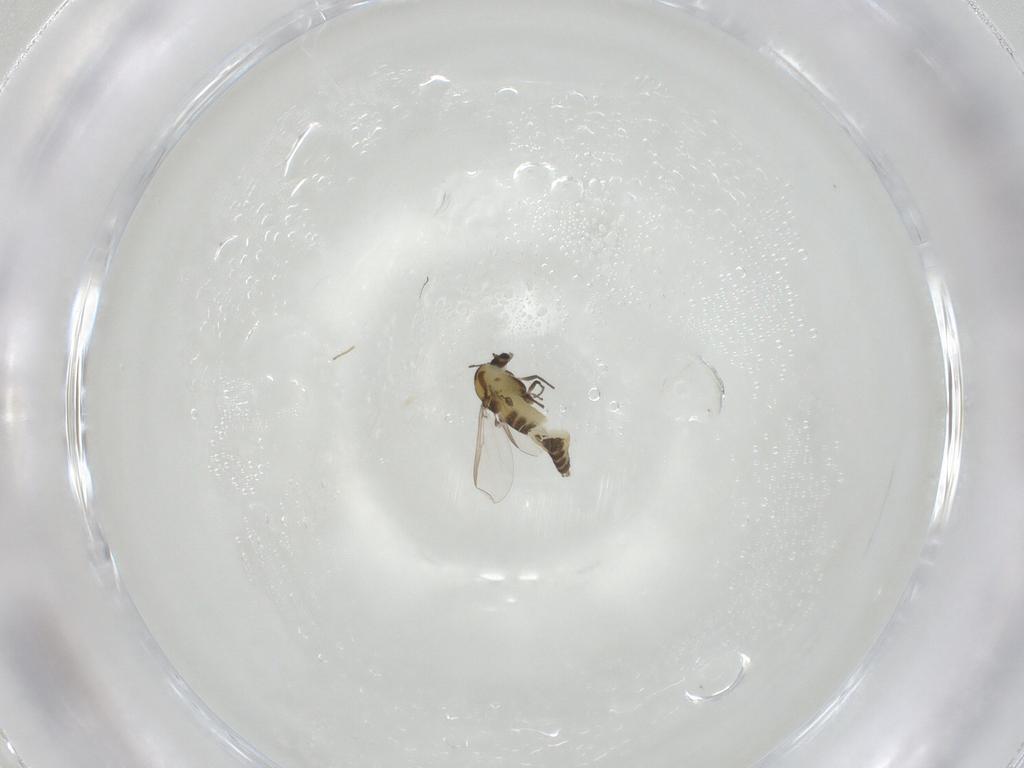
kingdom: Animalia
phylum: Arthropoda
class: Insecta
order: Diptera
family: Chironomidae
